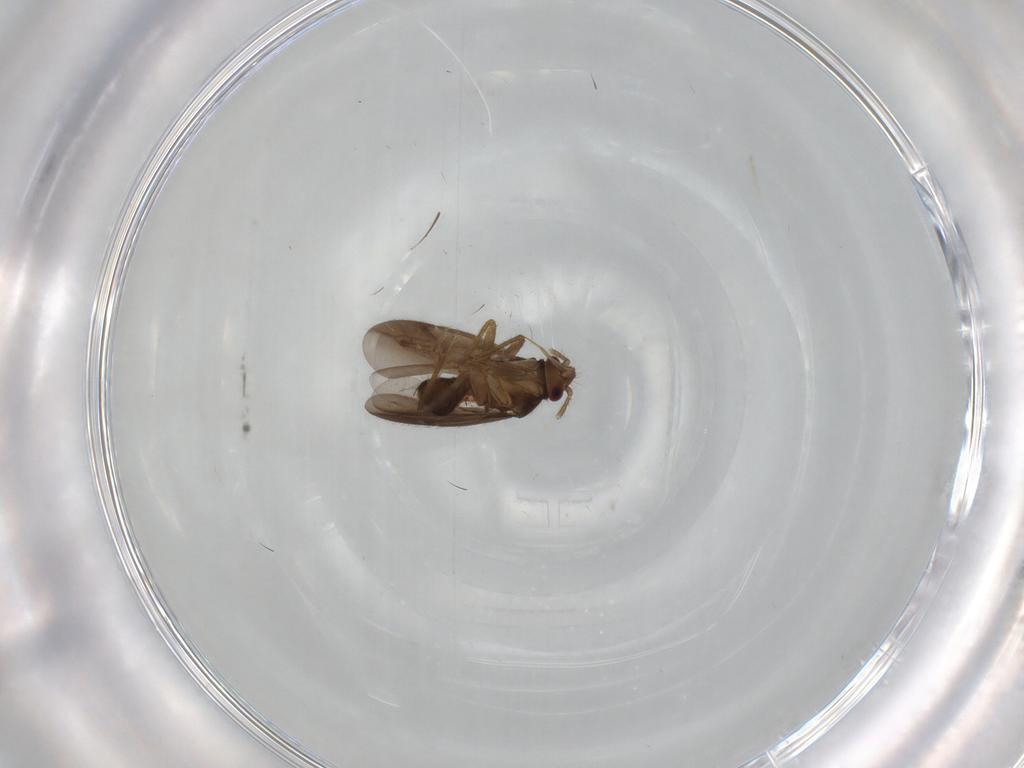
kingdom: Animalia
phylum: Arthropoda
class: Insecta
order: Hemiptera
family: Ceratocombidae
